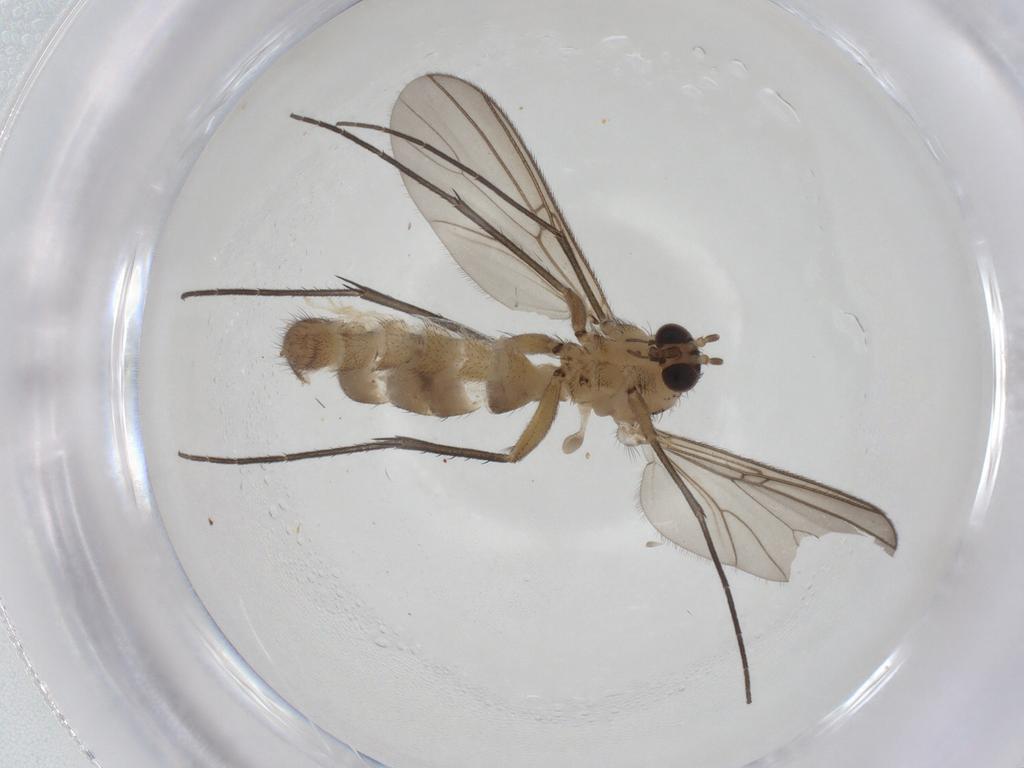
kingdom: Animalia
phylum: Arthropoda
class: Insecta
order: Diptera
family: Mycetophilidae
